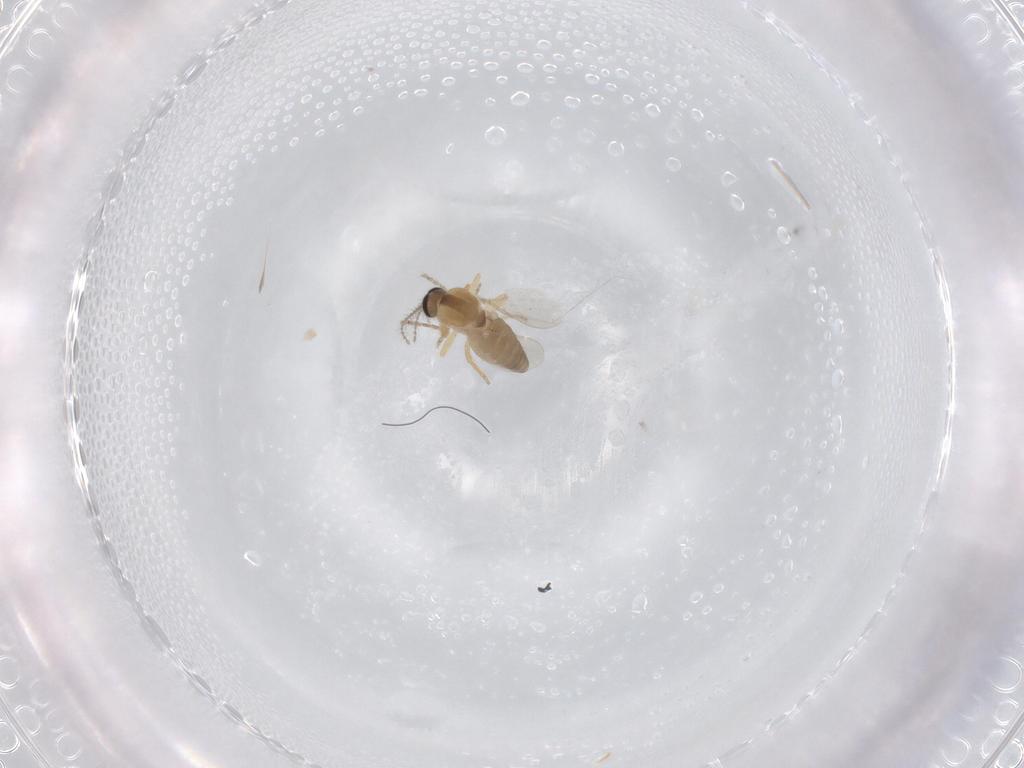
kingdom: Animalia
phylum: Arthropoda
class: Insecta
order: Diptera
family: Ceratopogonidae
